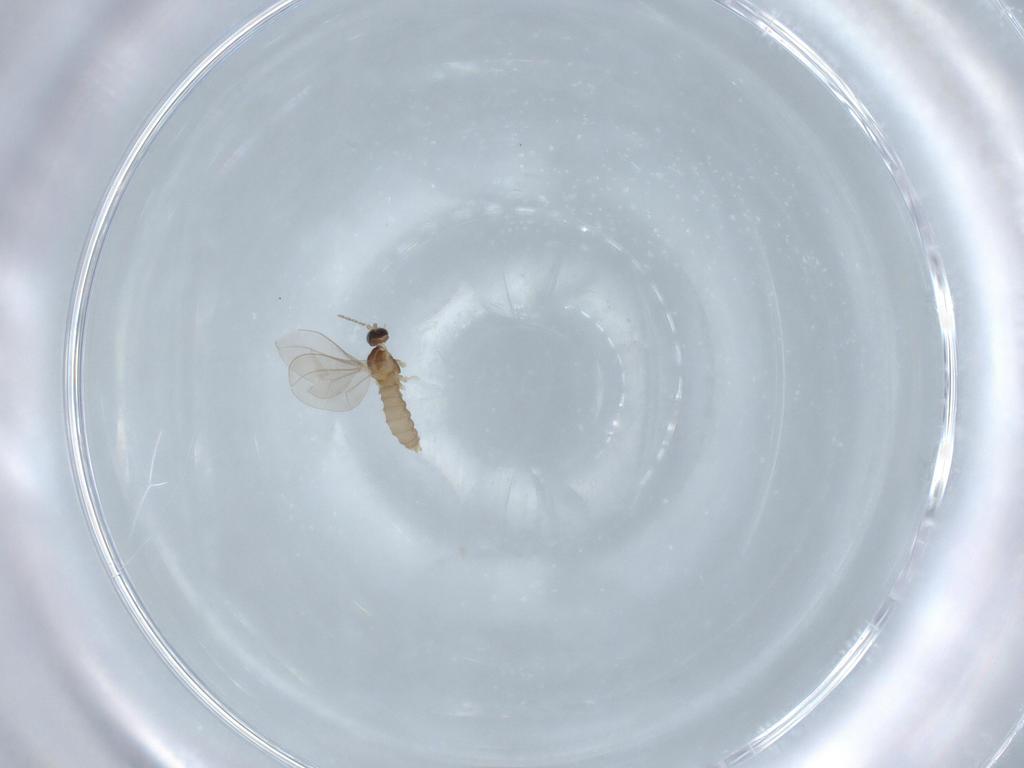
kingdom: Animalia
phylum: Arthropoda
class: Insecta
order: Diptera
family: Cecidomyiidae
